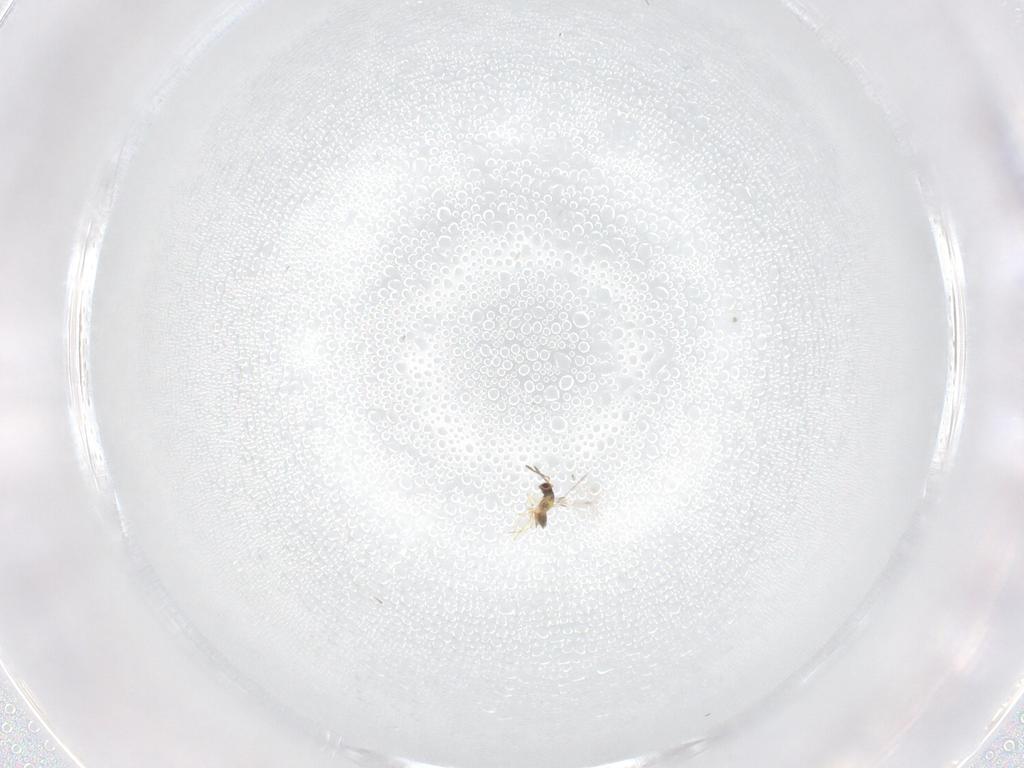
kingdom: Animalia
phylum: Arthropoda
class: Insecta
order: Hymenoptera
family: Mymaridae
